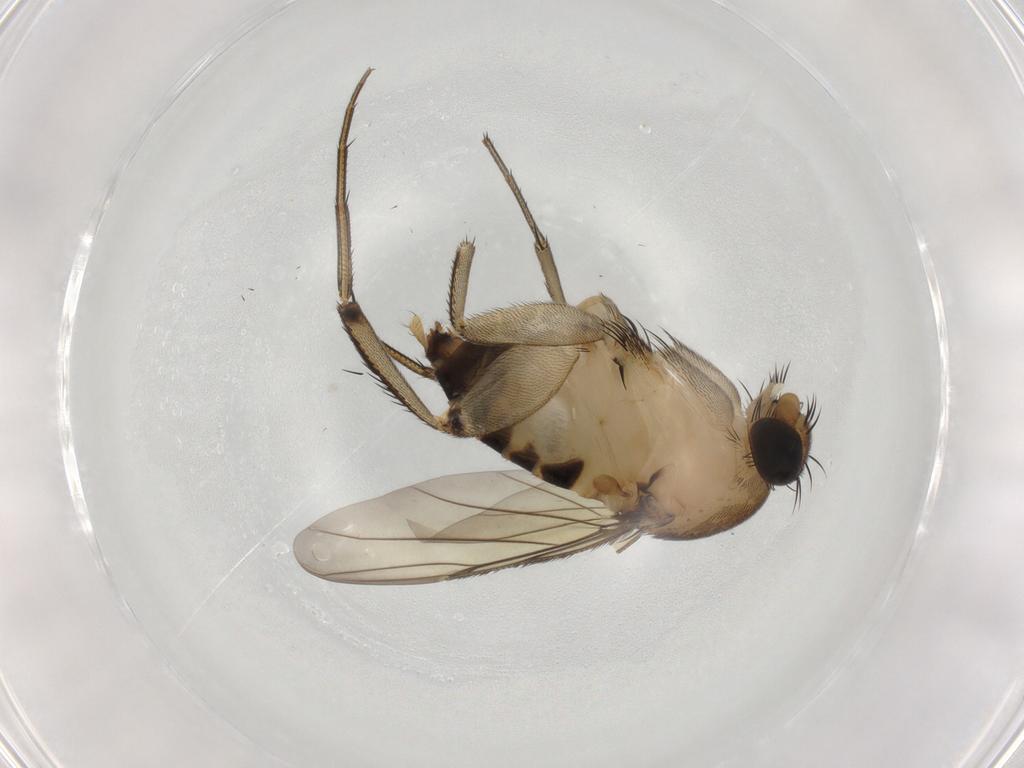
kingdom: Animalia
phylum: Arthropoda
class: Insecta
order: Diptera
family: Phoridae
